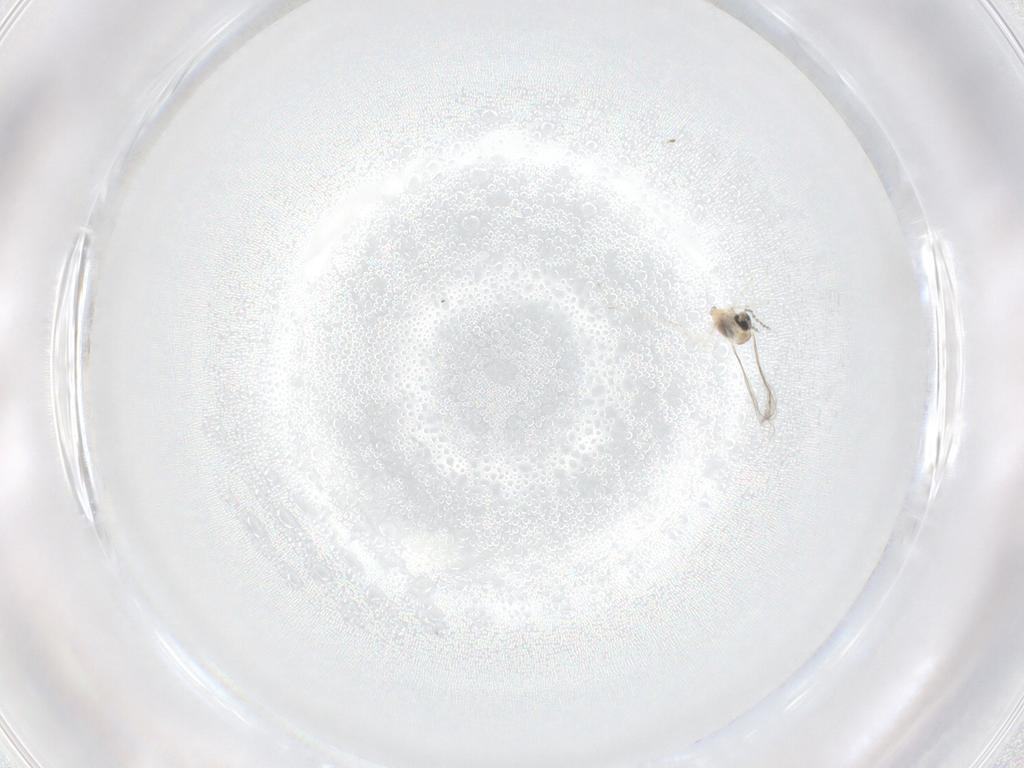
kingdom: Animalia
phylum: Arthropoda
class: Insecta
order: Diptera
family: Cecidomyiidae
